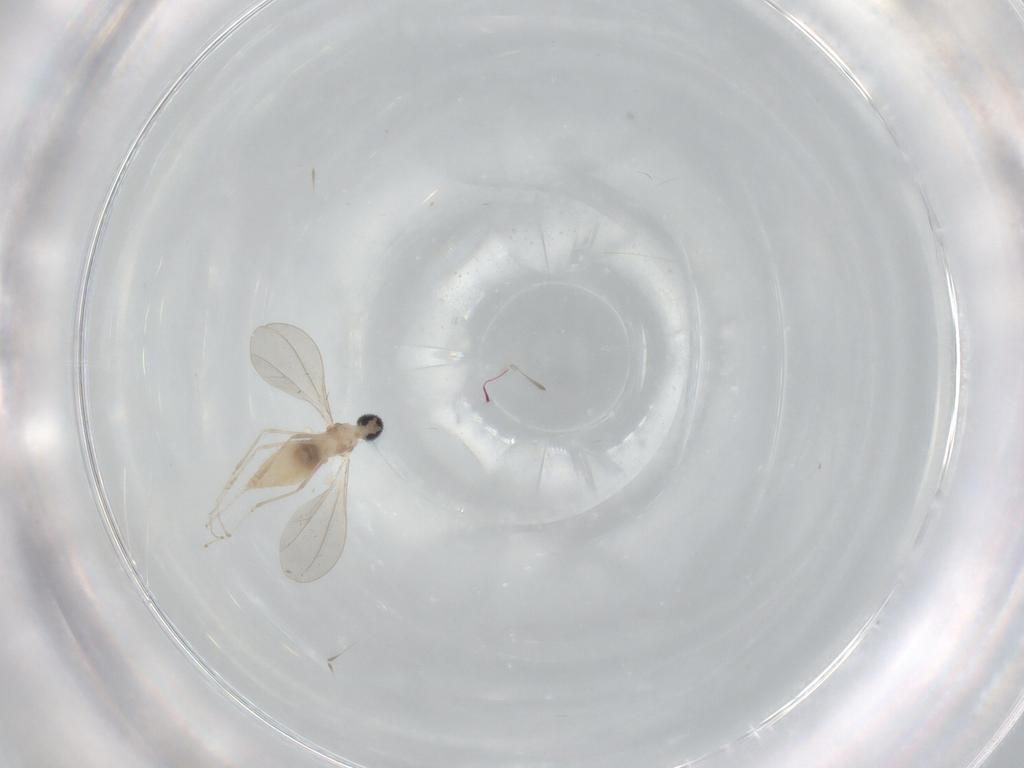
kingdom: Animalia
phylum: Arthropoda
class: Insecta
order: Diptera
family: Cecidomyiidae
